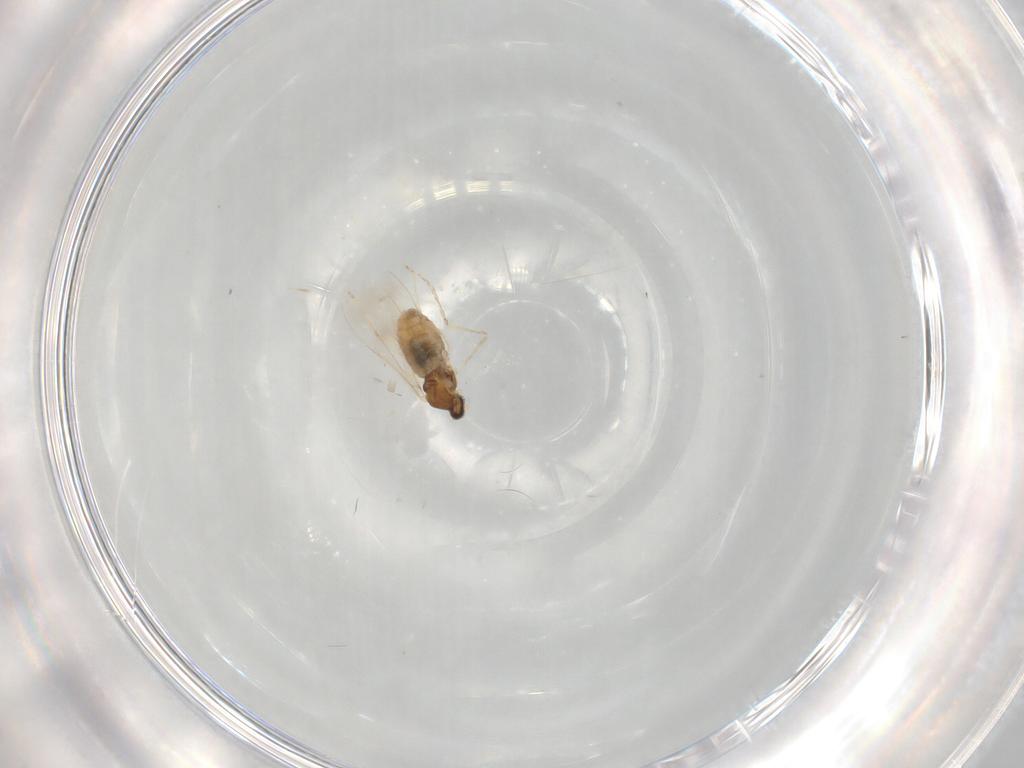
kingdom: Animalia
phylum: Arthropoda
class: Insecta
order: Diptera
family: Cecidomyiidae
